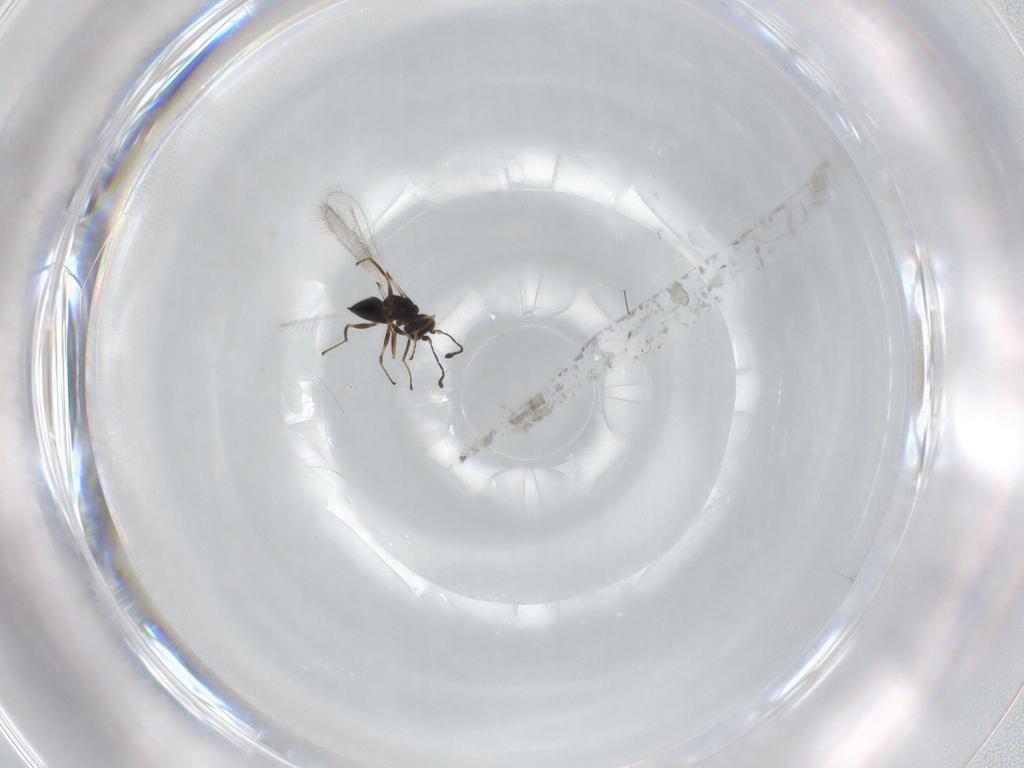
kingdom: Animalia
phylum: Arthropoda
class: Insecta
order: Hymenoptera
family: Mymaridae
